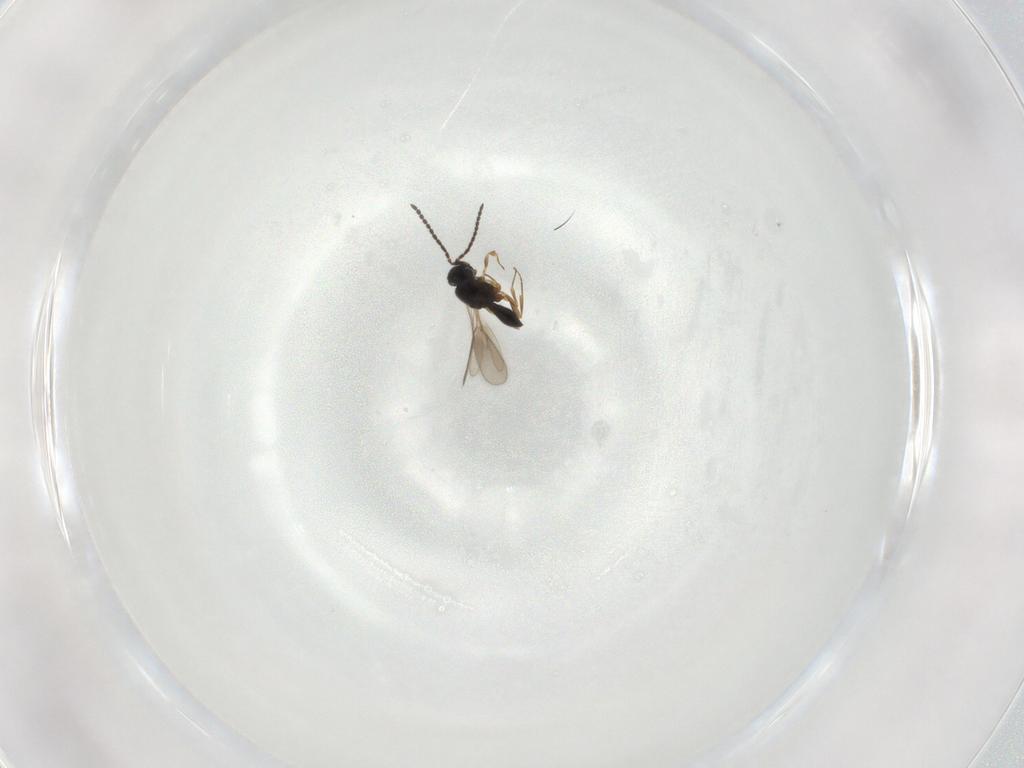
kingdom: Animalia
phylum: Arthropoda
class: Insecta
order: Hymenoptera
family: Scelionidae
